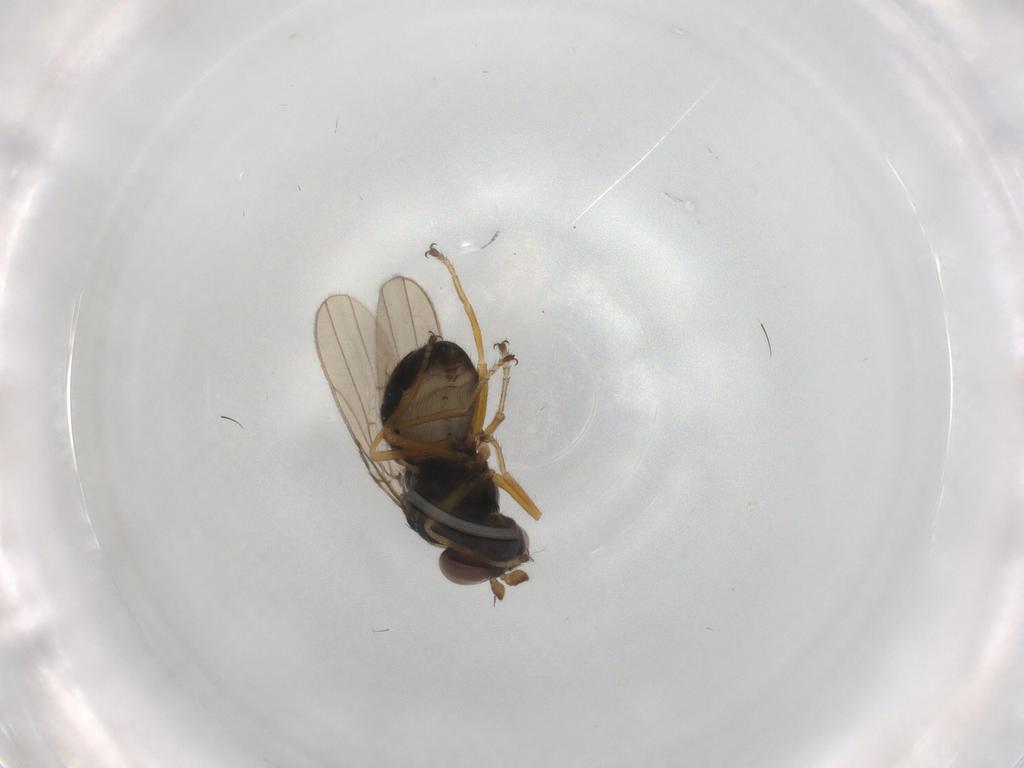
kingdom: Animalia
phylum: Arthropoda
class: Insecta
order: Diptera
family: Ephydridae
